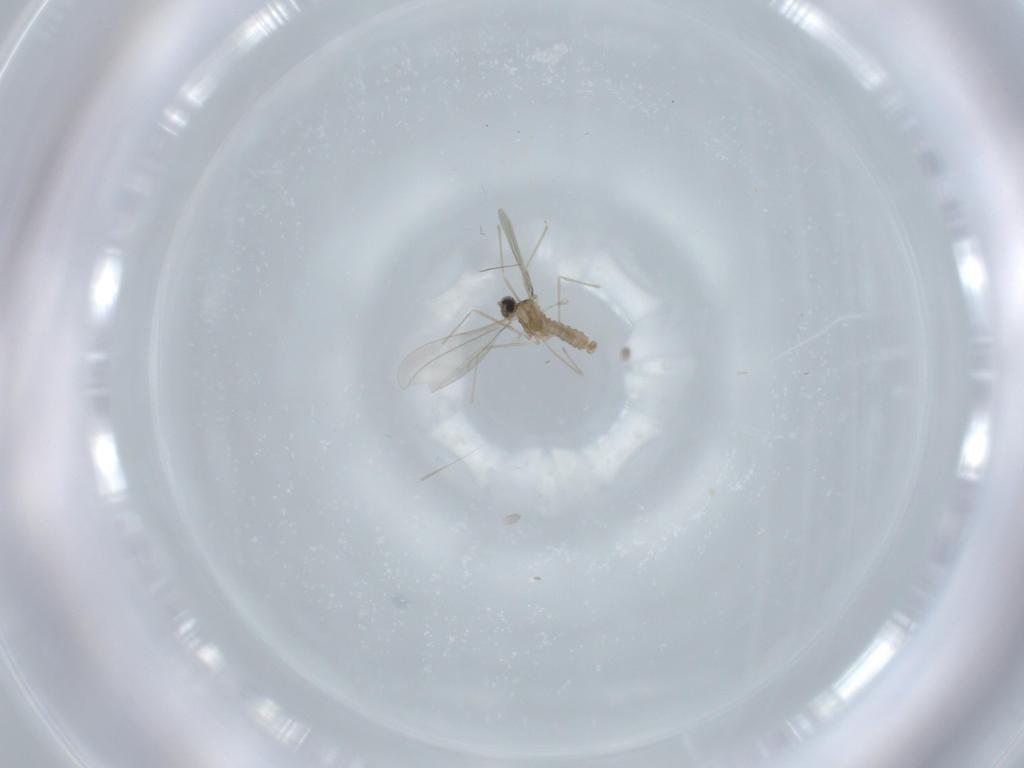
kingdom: Animalia
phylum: Arthropoda
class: Insecta
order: Diptera
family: Cecidomyiidae
